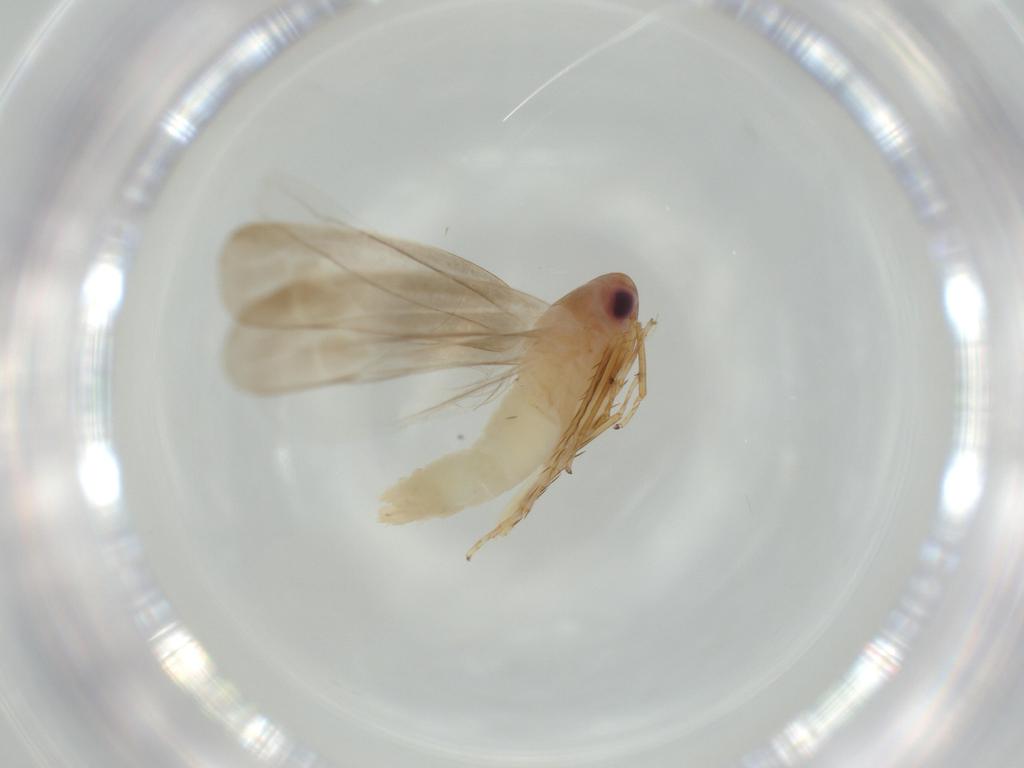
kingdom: Animalia
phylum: Arthropoda
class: Insecta
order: Hemiptera
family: Cicadellidae
